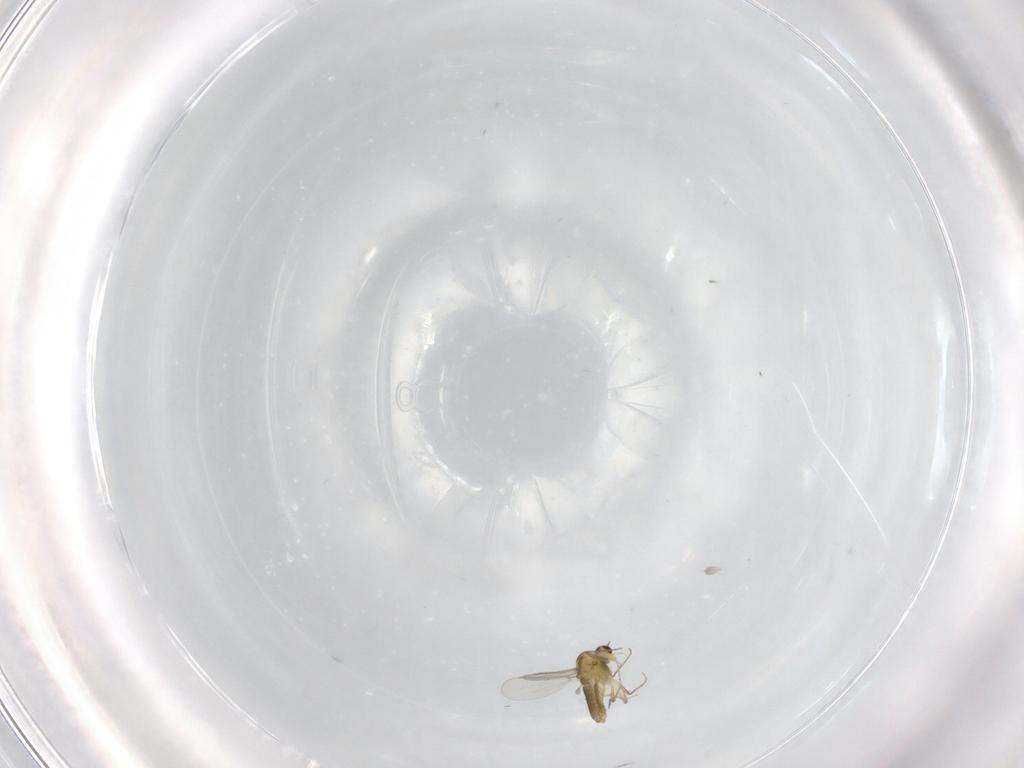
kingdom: Animalia
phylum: Arthropoda
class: Insecta
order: Diptera
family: Chironomidae
